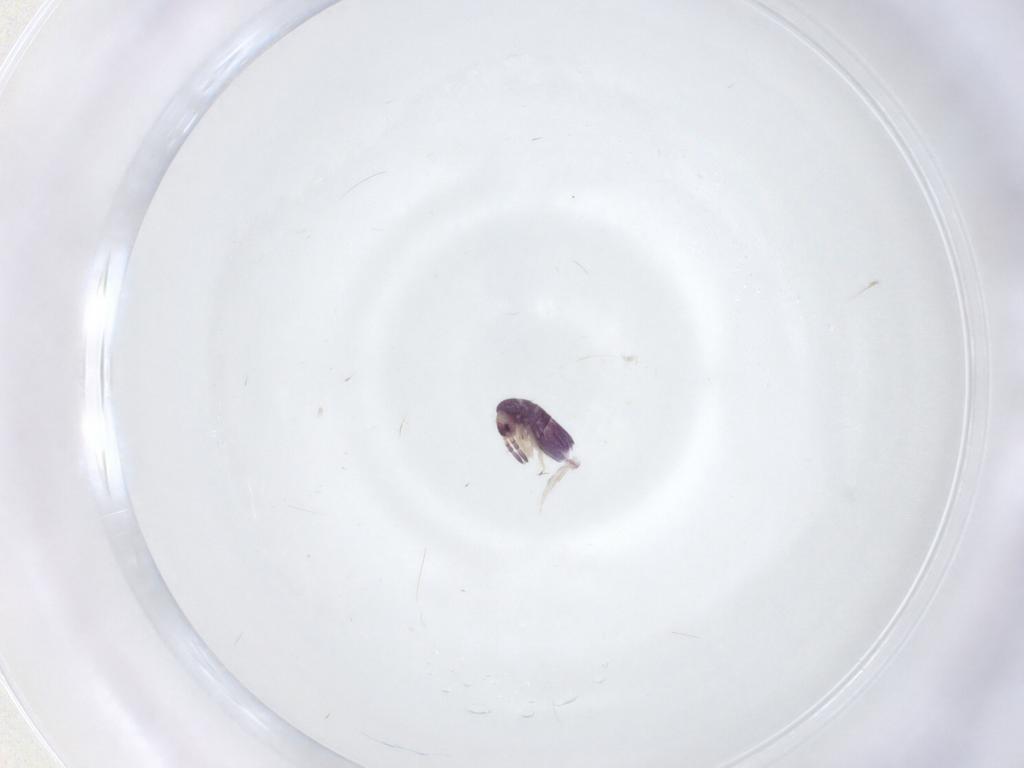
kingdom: Animalia
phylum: Arthropoda
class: Collembola
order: Entomobryomorpha
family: Entomobryidae
